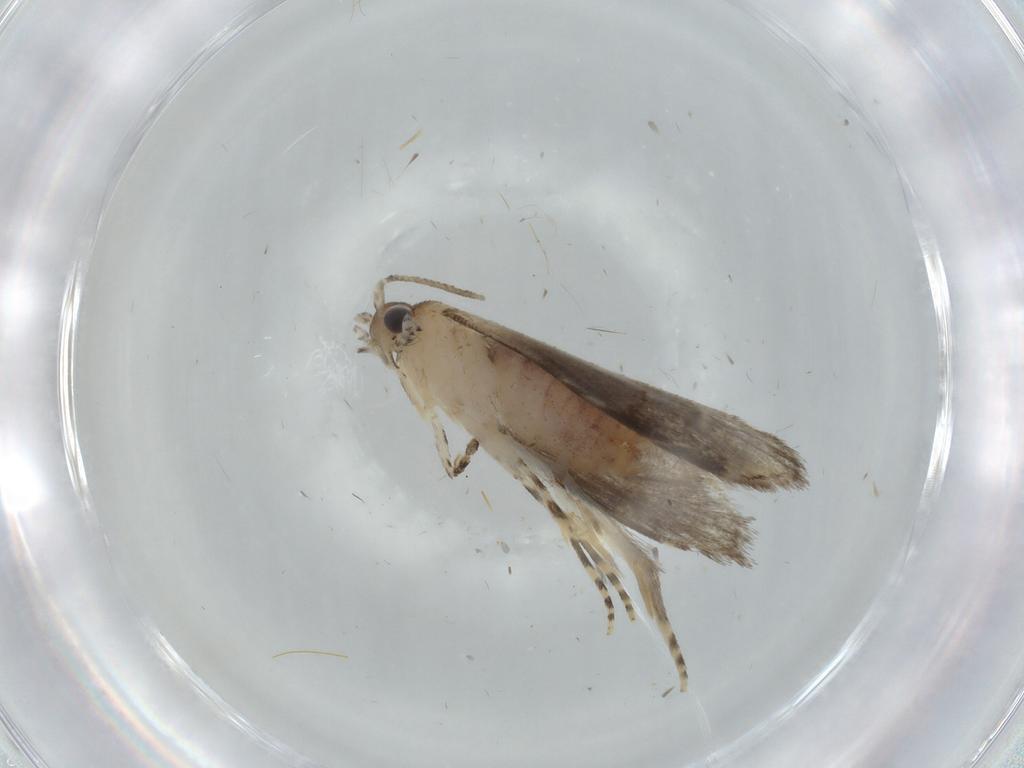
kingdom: Animalia
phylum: Arthropoda
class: Insecta
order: Lepidoptera
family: Tineidae
